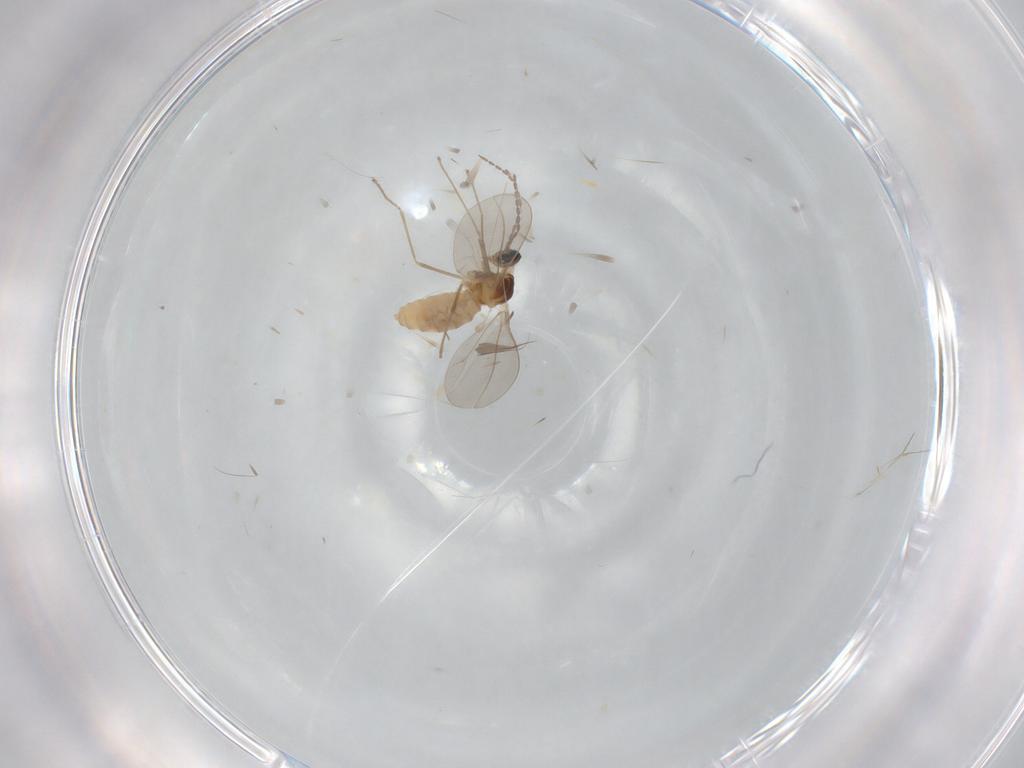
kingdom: Animalia
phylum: Arthropoda
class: Insecta
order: Diptera
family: Cecidomyiidae
